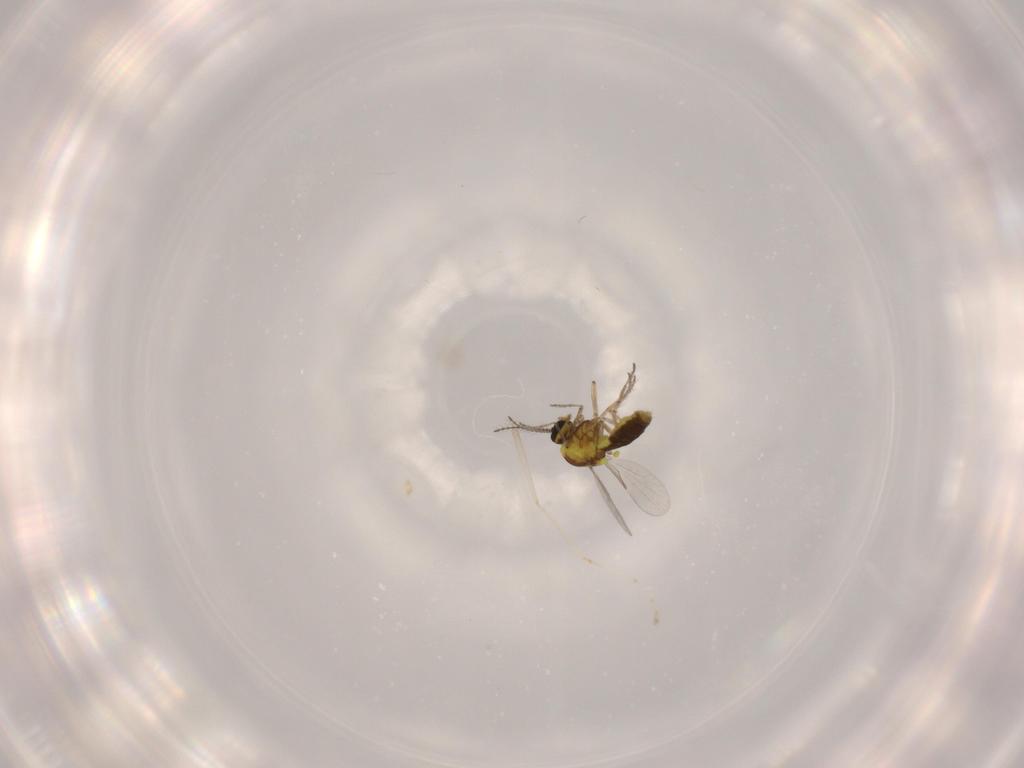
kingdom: Animalia
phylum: Arthropoda
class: Insecta
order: Diptera
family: Ceratopogonidae
